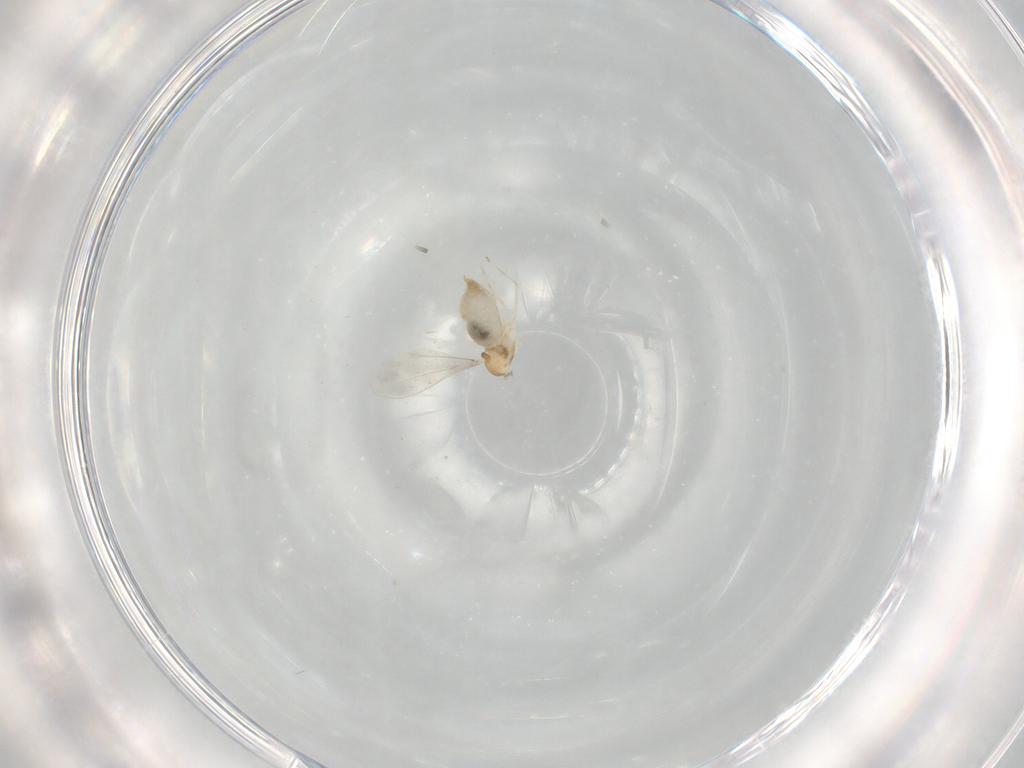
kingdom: Animalia
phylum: Arthropoda
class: Insecta
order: Diptera
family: Cecidomyiidae
